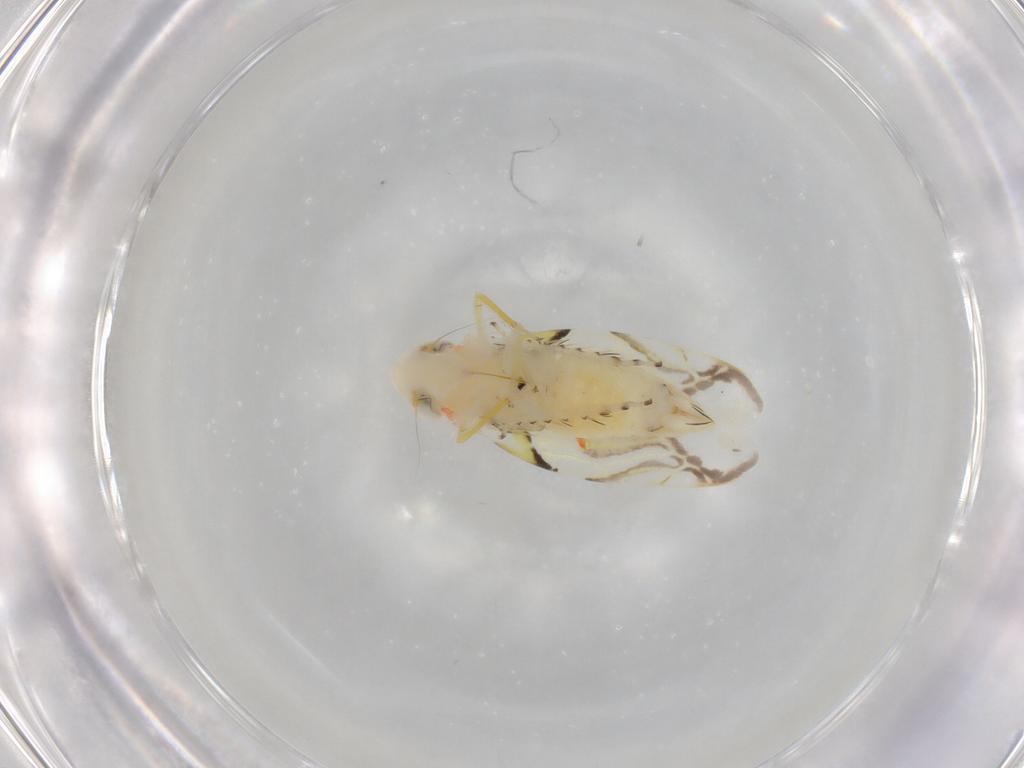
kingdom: Animalia
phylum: Arthropoda
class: Insecta
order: Hemiptera
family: Cicadellidae
